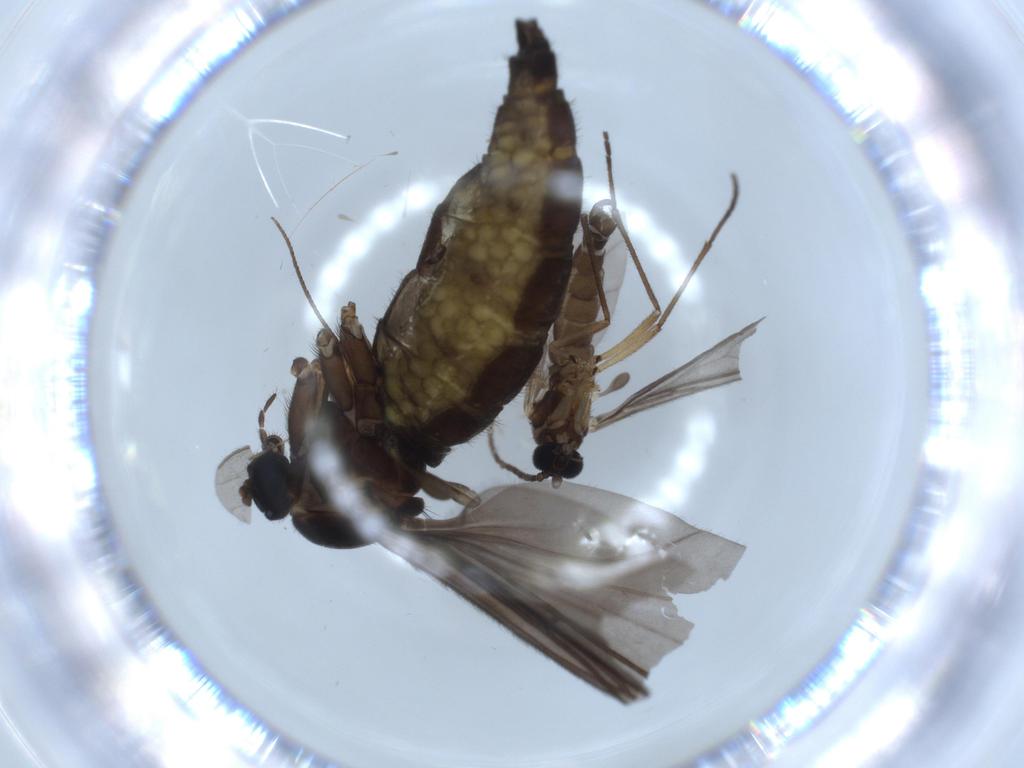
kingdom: Animalia
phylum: Arthropoda
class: Insecta
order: Diptera
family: Sciaridae
